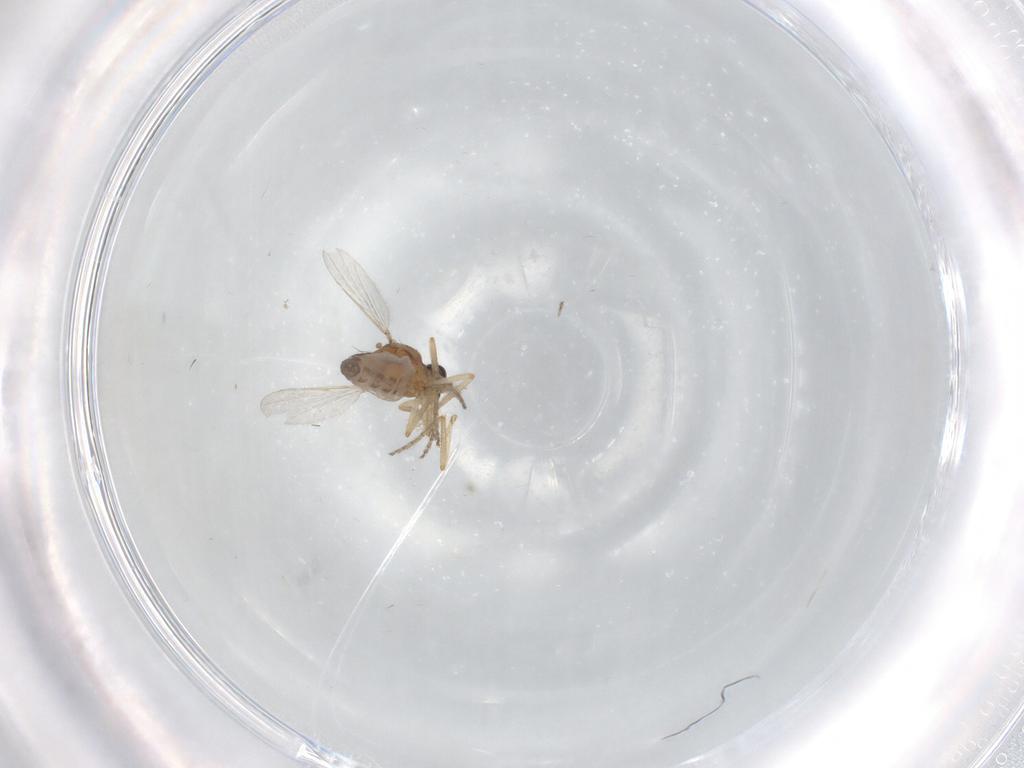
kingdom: Animalia
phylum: Arthropoda
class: Insecta
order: Diptera
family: Ceratopogonidae
